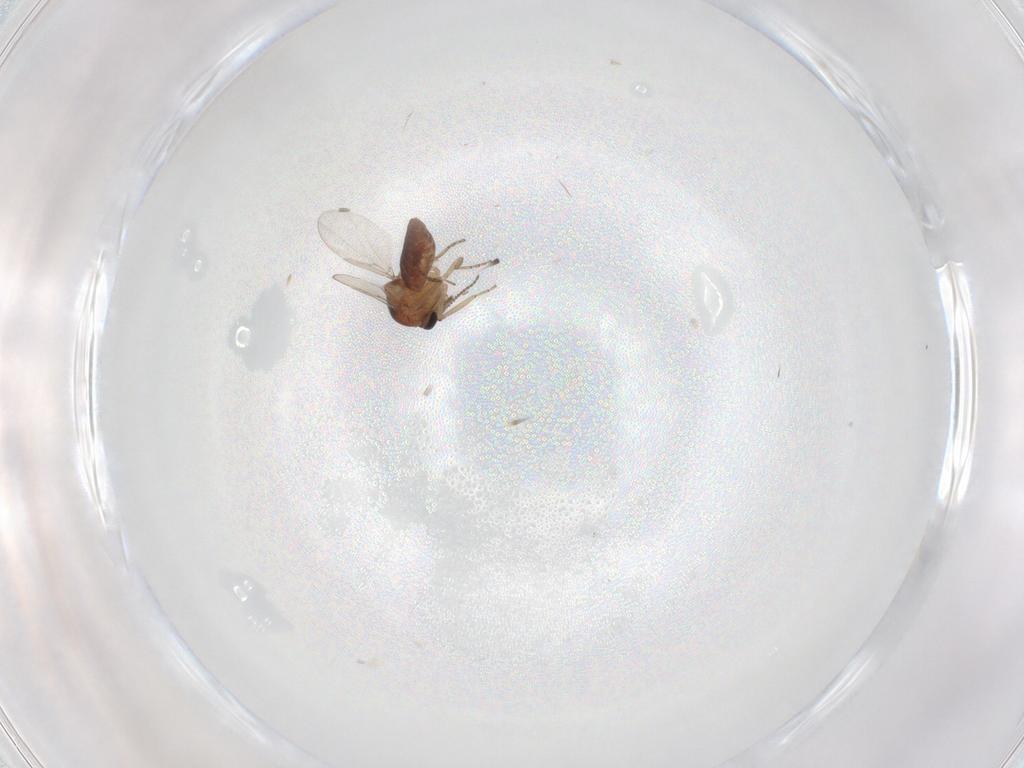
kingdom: Animalia
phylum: Arthropoda
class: Insecta
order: Diptera
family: Ceratopogonidae
